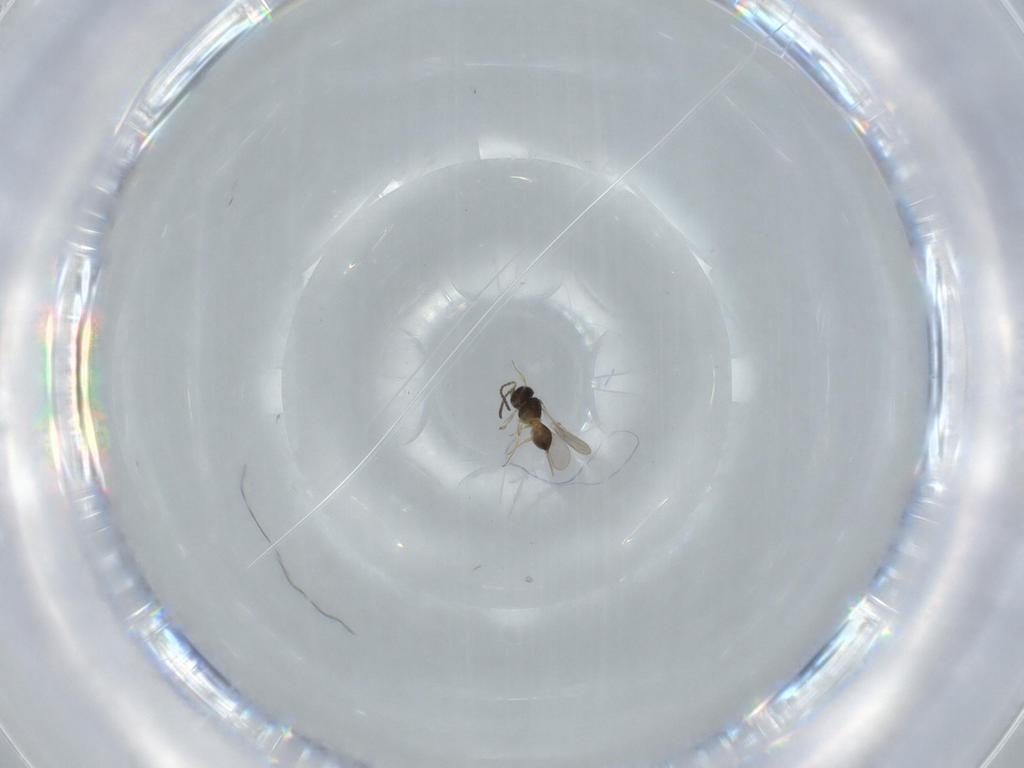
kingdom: Animalia
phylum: Arthropoda
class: Insecta
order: Hymenoptera
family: Scelionidae
